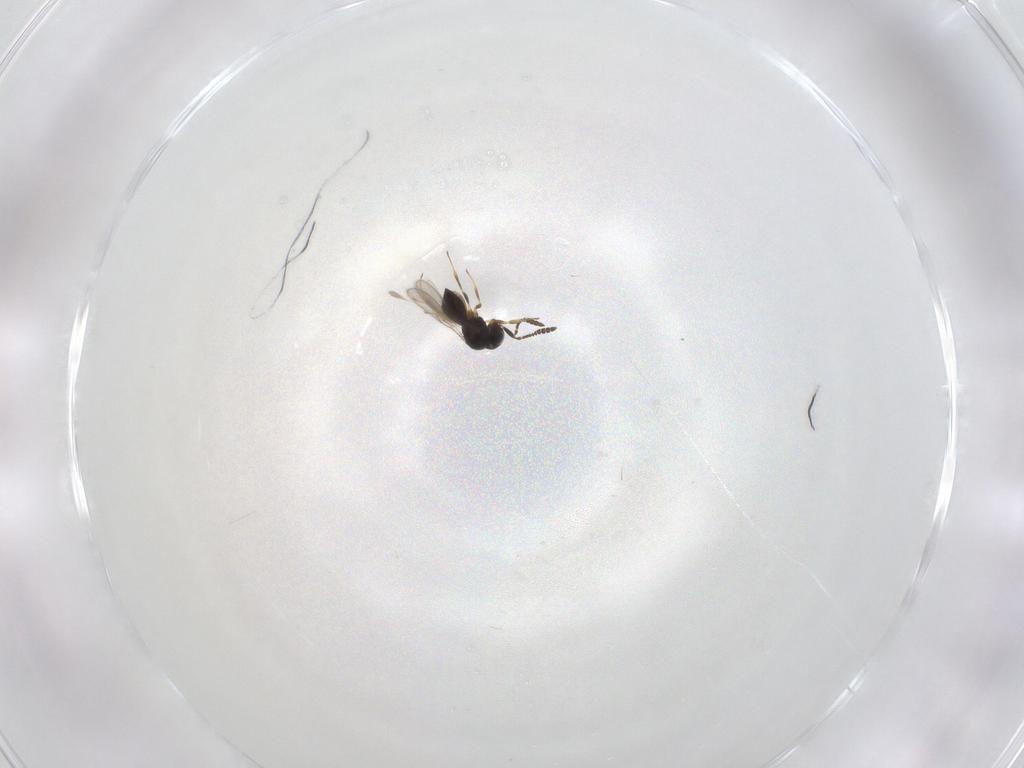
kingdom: Animalia
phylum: Arthropoda
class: Insecta
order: Hymenoptera
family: Scelionidae
